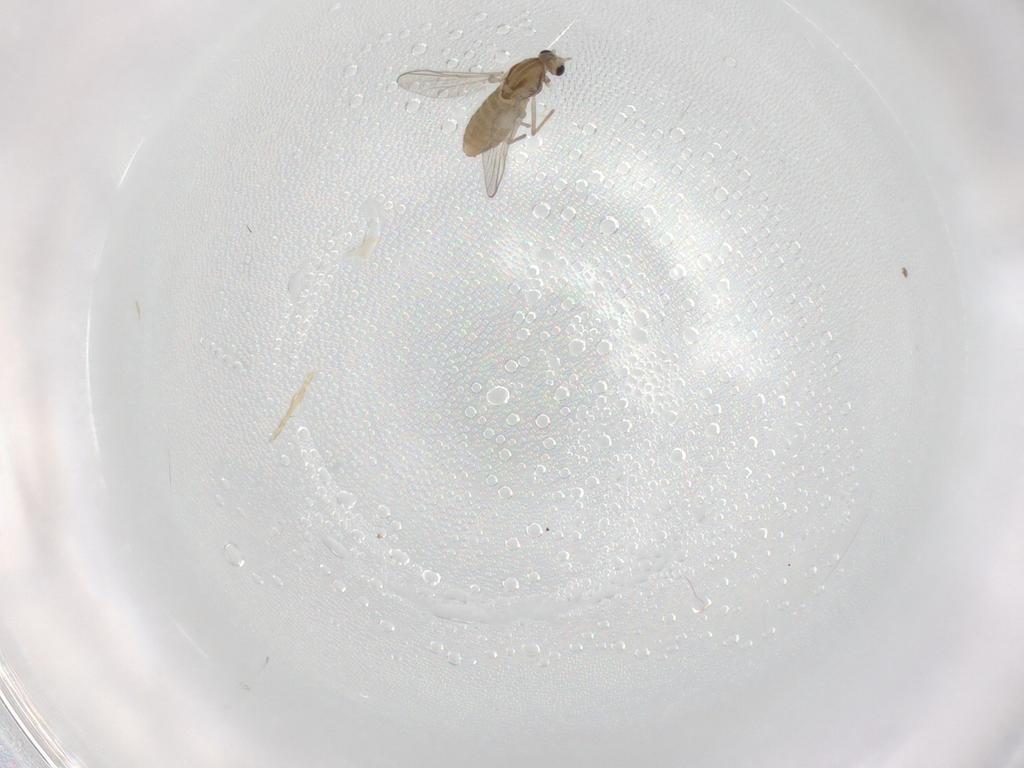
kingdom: Animalia
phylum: Arthropoda
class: Insecta
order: Diptera
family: Chironomidae
